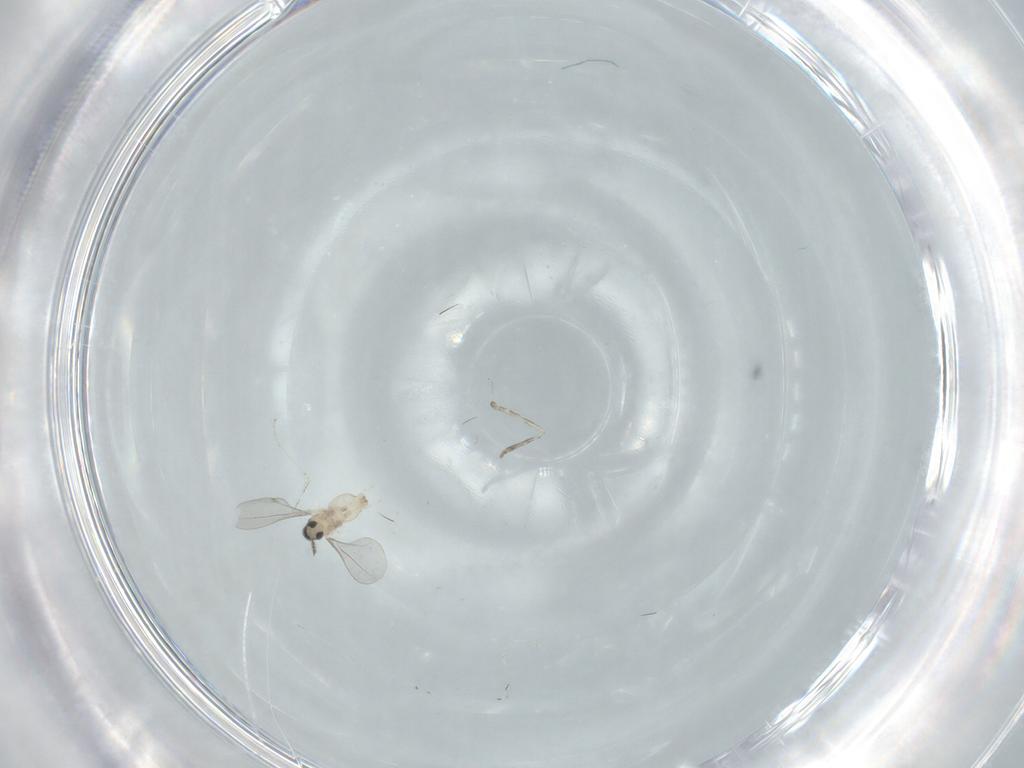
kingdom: Animalia
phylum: Arthropoda
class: Insecta
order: Diptera
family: Cecidomyiidae
